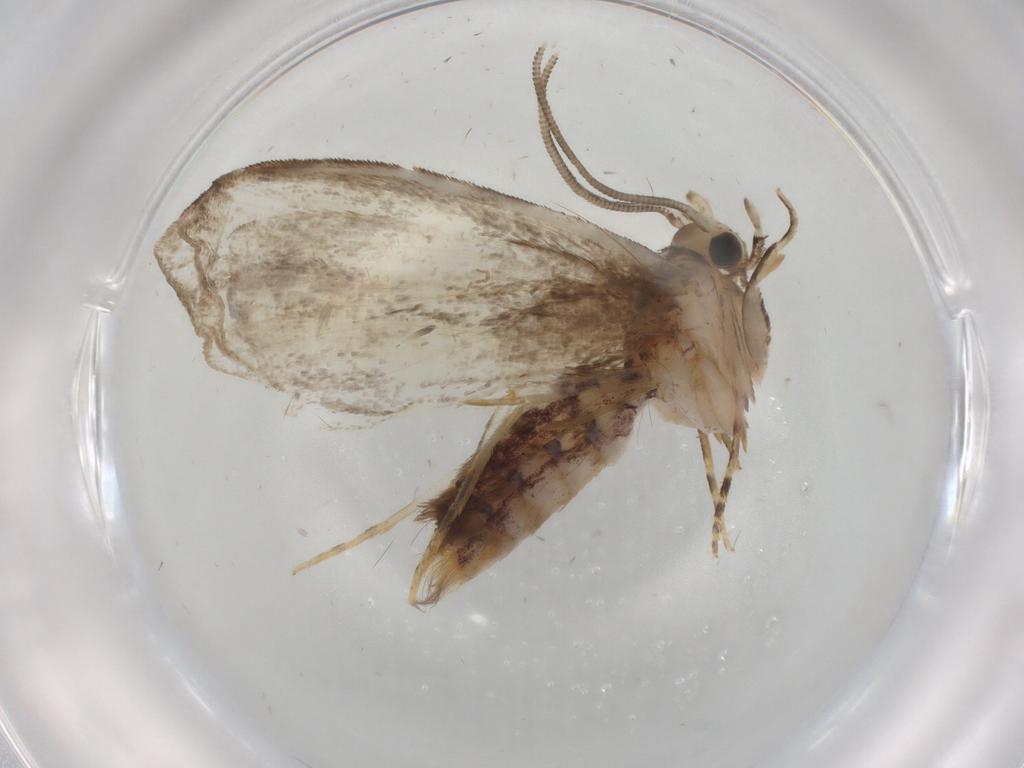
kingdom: Animalia
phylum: Arthropoda
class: Insecta
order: Lepidoptera
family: Dryadaulidae
